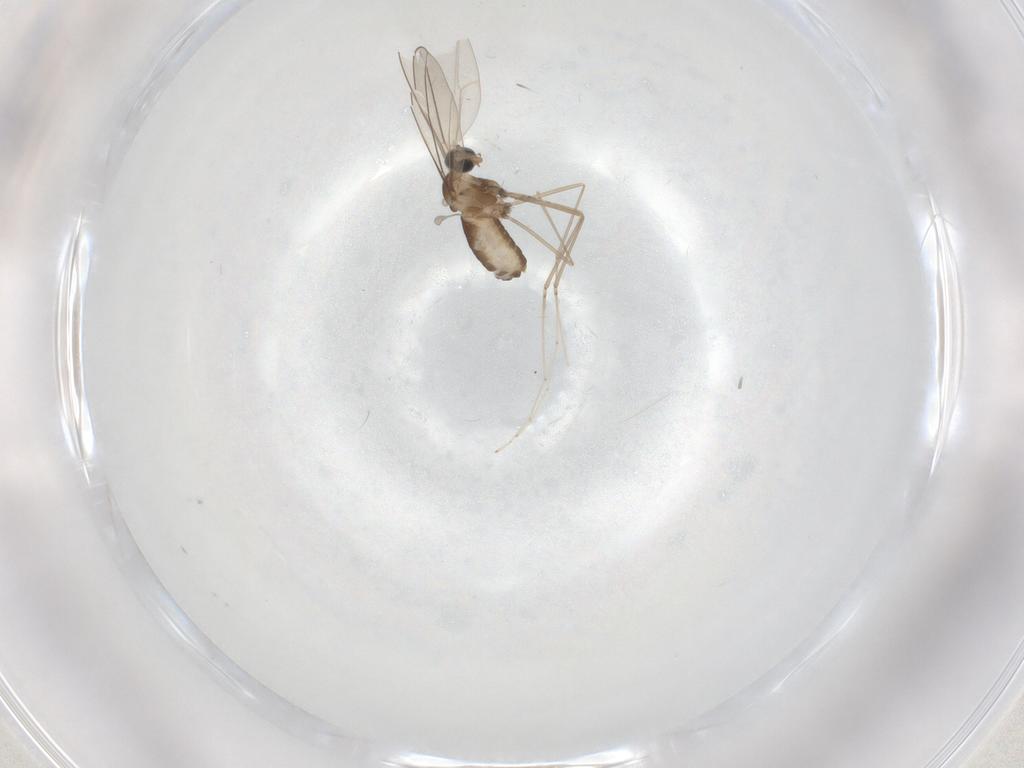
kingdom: Animalia
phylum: Arthropoda
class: Insecta
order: Diptera
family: Cecidomyiidae
